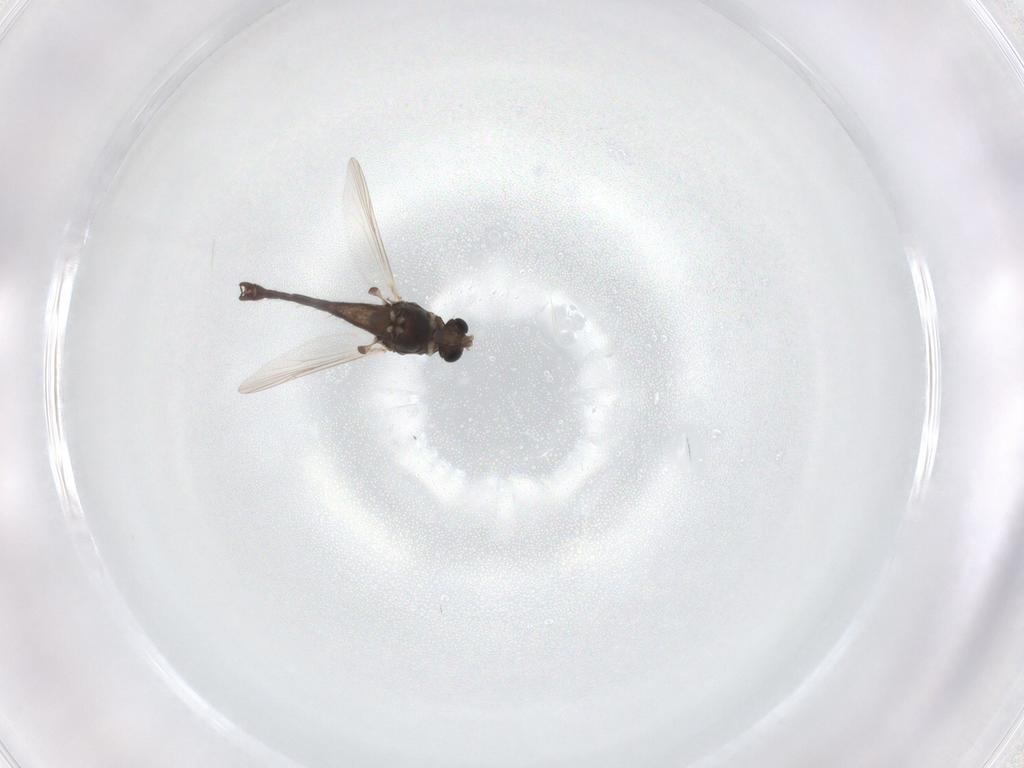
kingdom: Animalia
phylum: Arthropoda
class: Insecta
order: Diptera
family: Chironomidae
